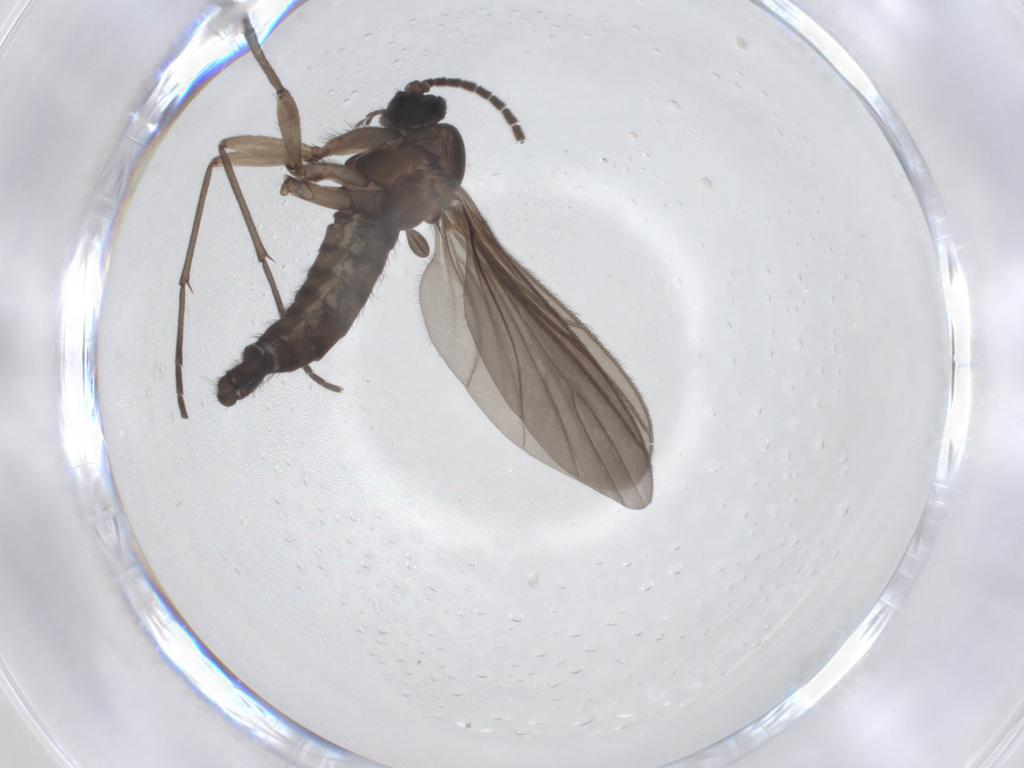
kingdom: Animalia
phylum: Arthropoda
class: Insecta
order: Diptera
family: Sciaridae
